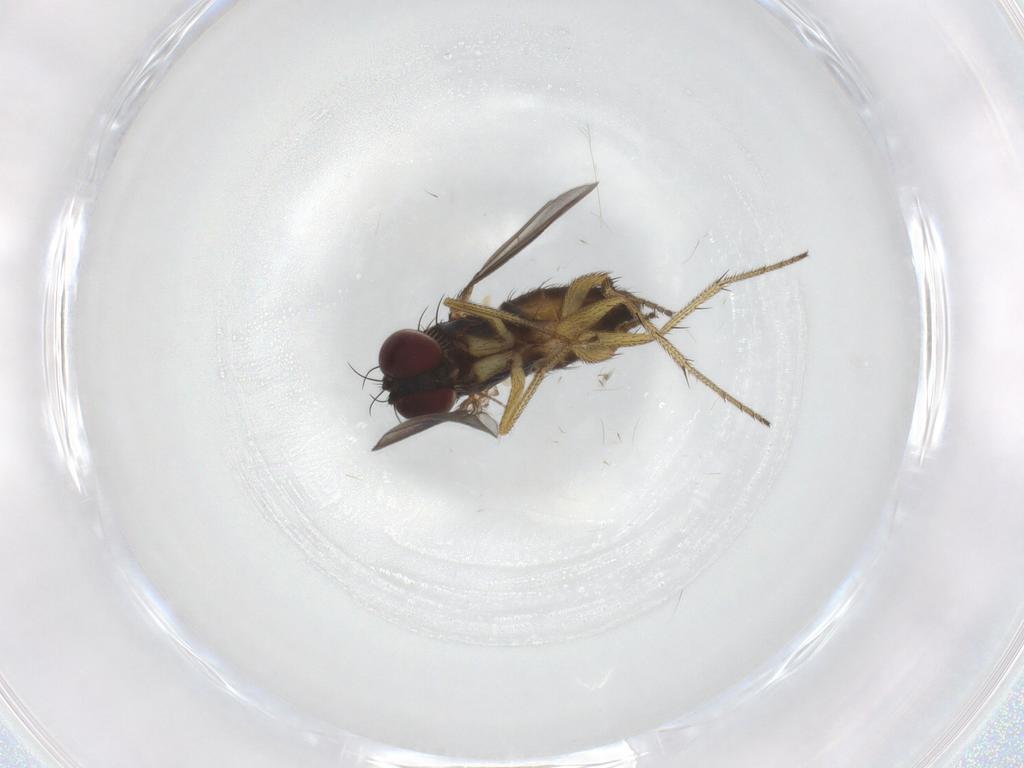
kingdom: Animalia
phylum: Arthropoda
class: Insecta
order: Diptera
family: Dolichopodidae
